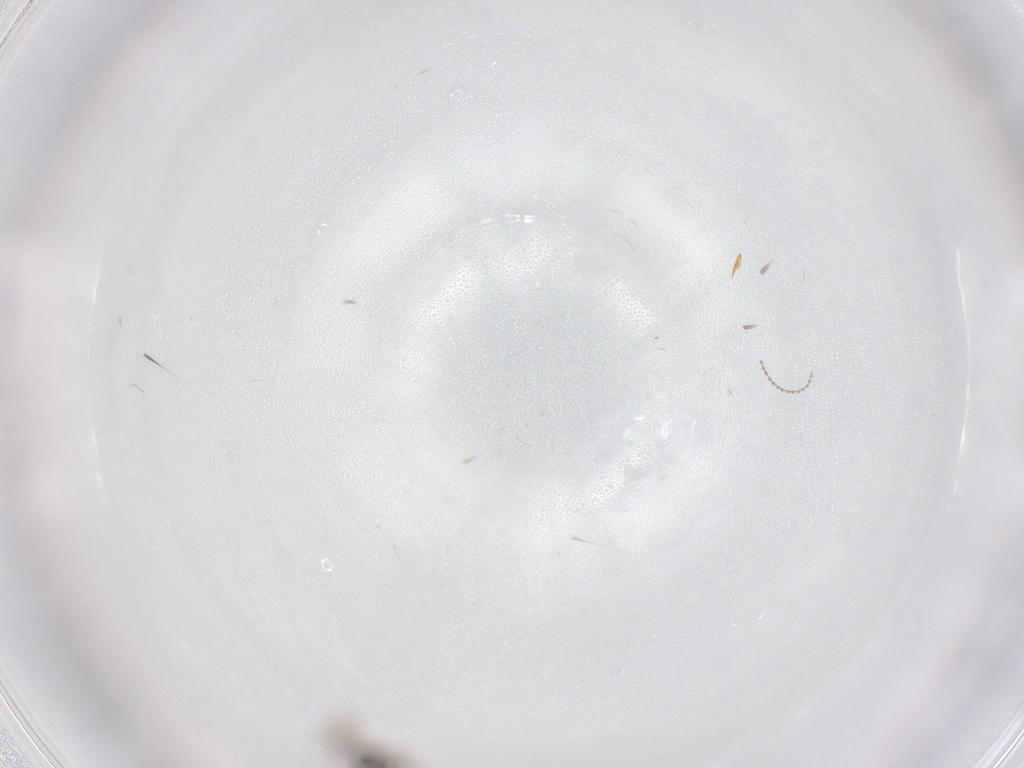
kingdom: Animalia
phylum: Arthropoda
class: Insecta
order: Diptera
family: Chironomidae
